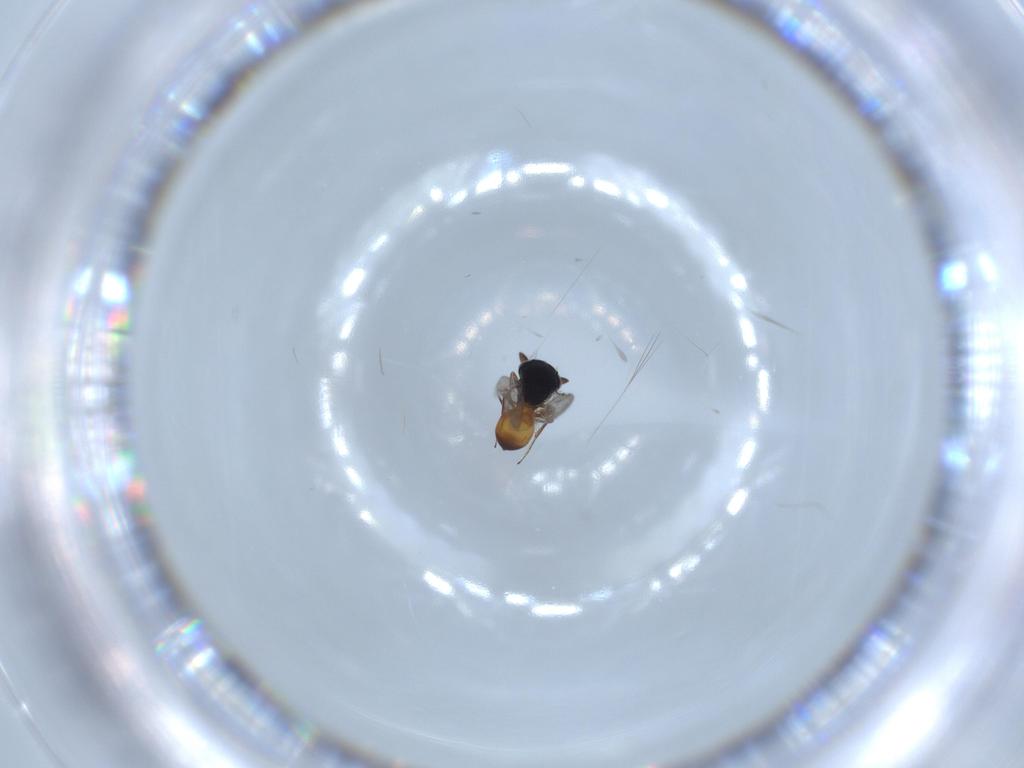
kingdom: Animalia
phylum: Arthropoda
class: Insecta
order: Hymenoptera
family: Scelionidae
